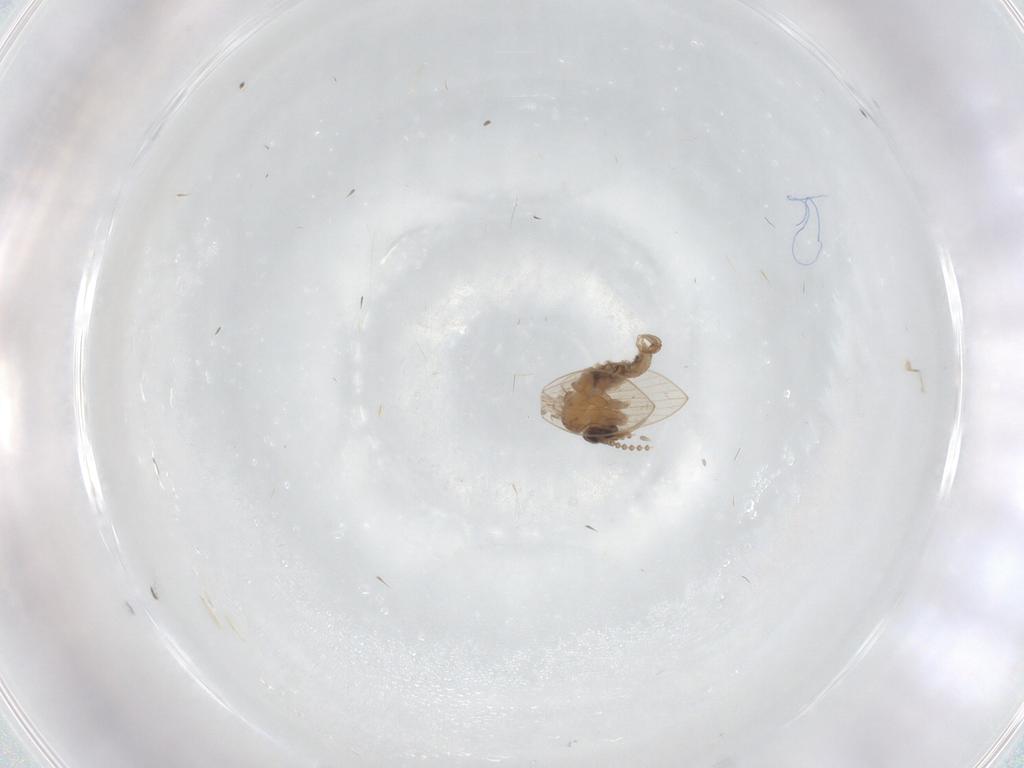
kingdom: Animalia
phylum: Arthropoda
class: Insecta
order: Diptera
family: Psychodidae
